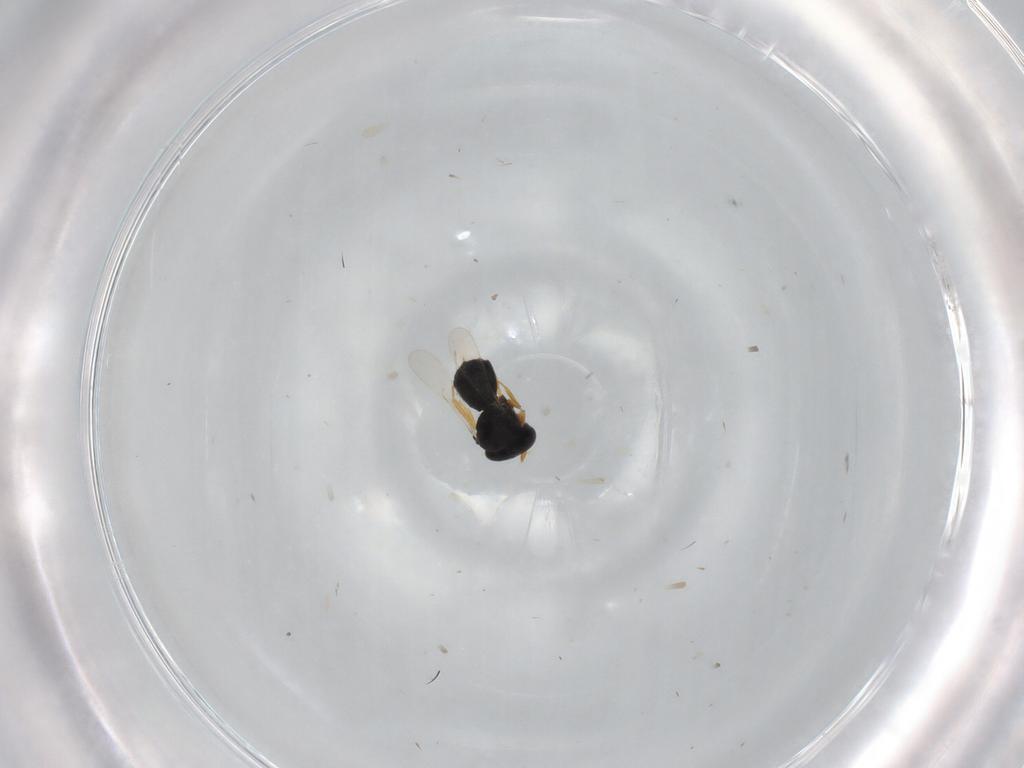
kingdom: Animalia
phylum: Arthropoda
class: Insecta
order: Hymenoptera
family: Scelionidae
